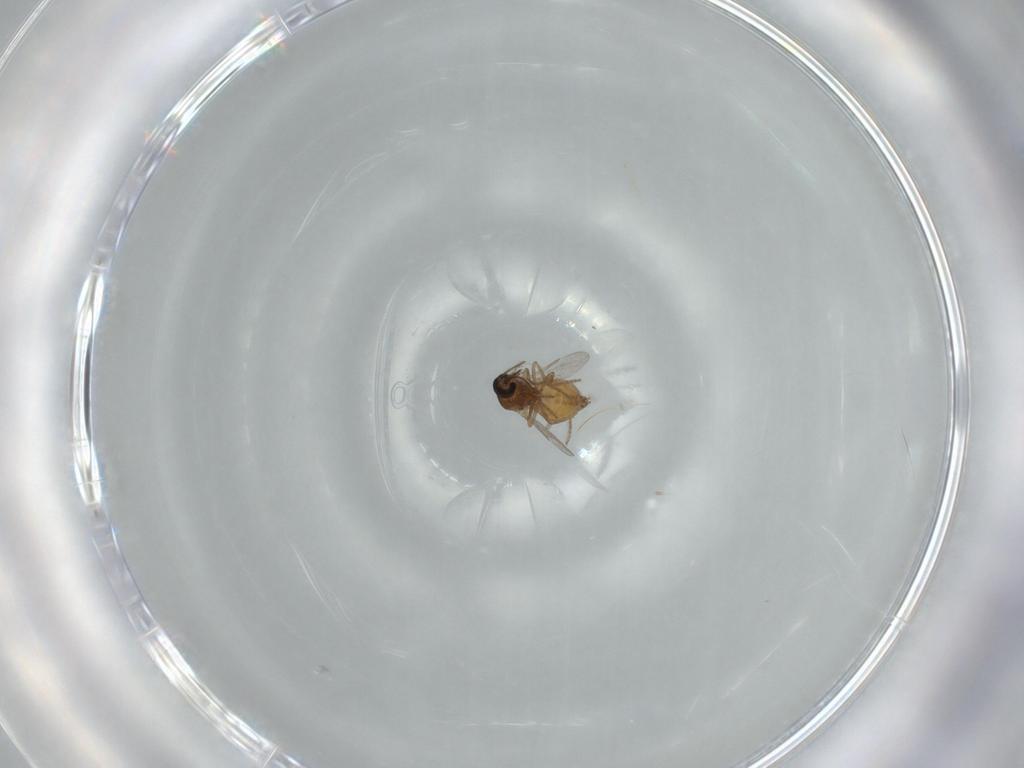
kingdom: Animalia
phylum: Arthropoda
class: Insecta
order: Diptera
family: Ceratopogonidae
